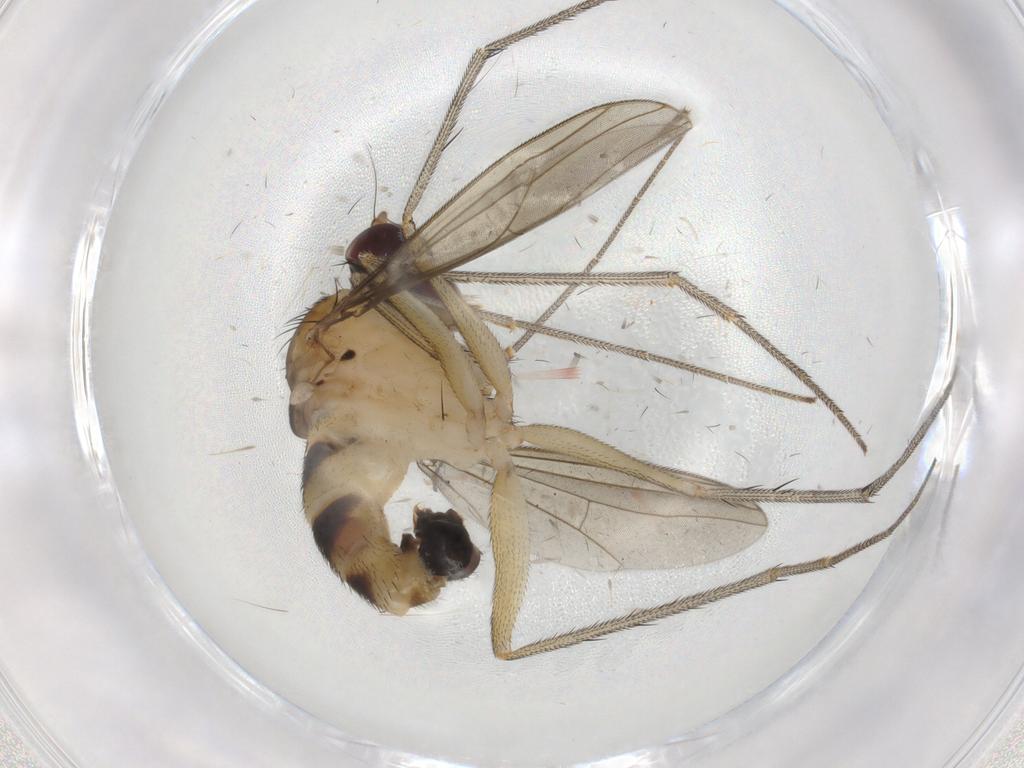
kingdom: Animalia
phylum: Arthropoda
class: Insecta
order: Diptera
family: Sciaridae
